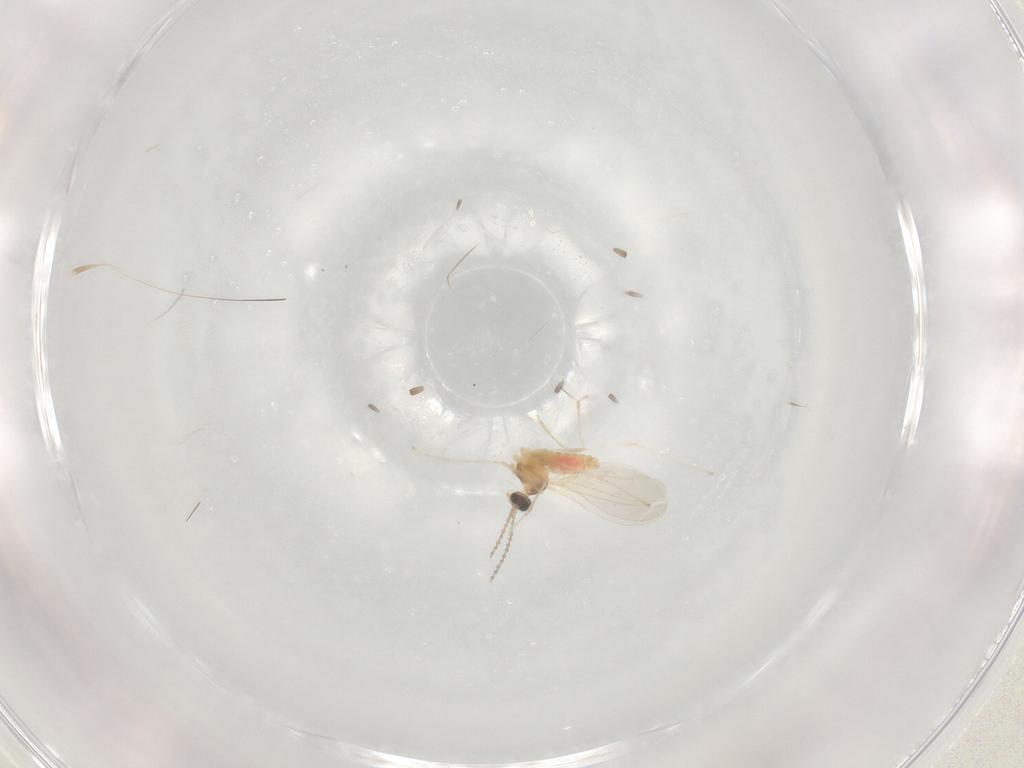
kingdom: Animalia
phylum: Arthropoda
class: Insecta
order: Diptera
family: Cecidomyiidae
